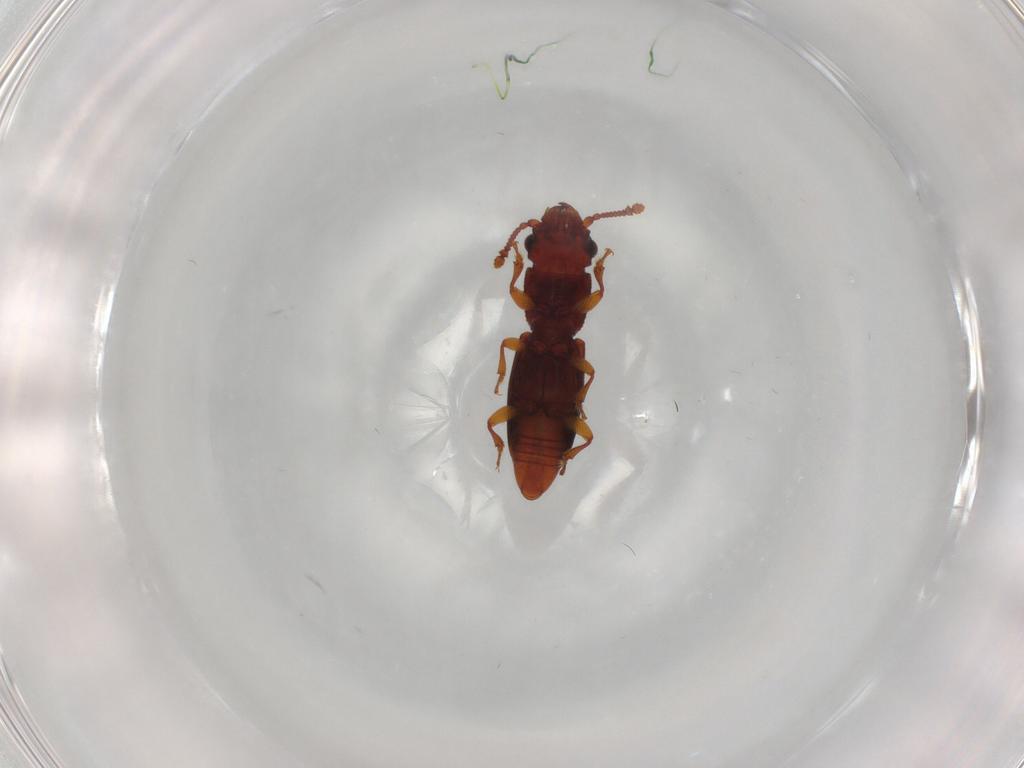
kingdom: Animalia
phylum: Arthropoda
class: Insecta
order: Coleoptera
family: Monotomidae
